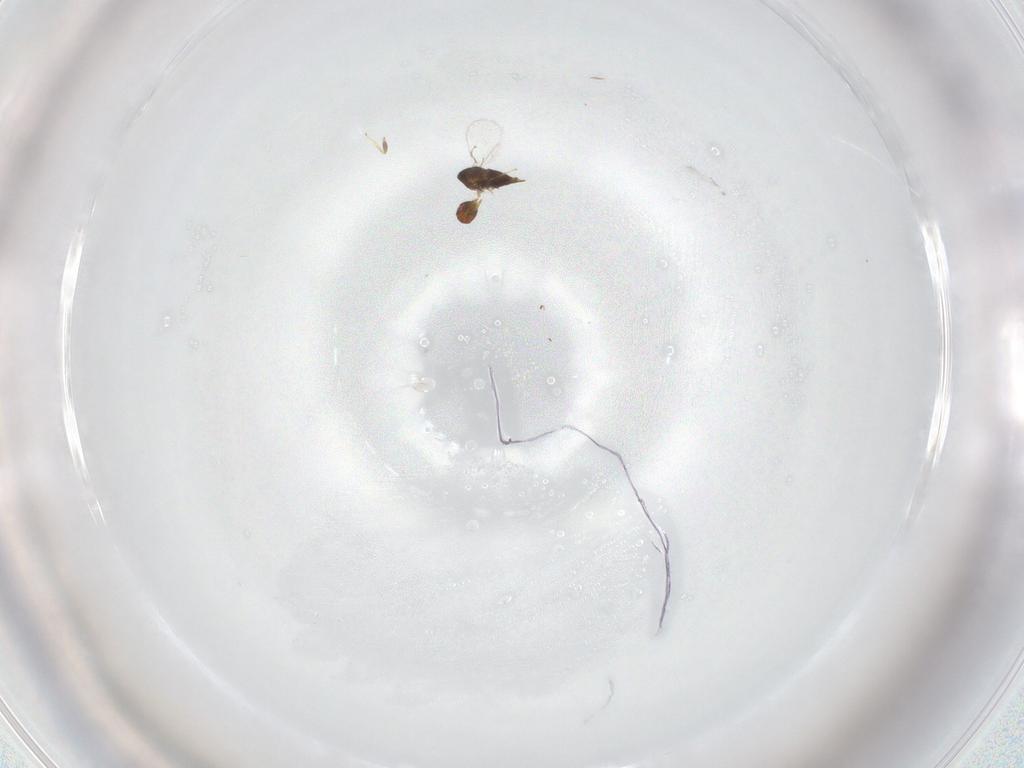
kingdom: Animalia
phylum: Arthropoda
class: Insecta
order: Hymenoptera
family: Trichogrammatidae
